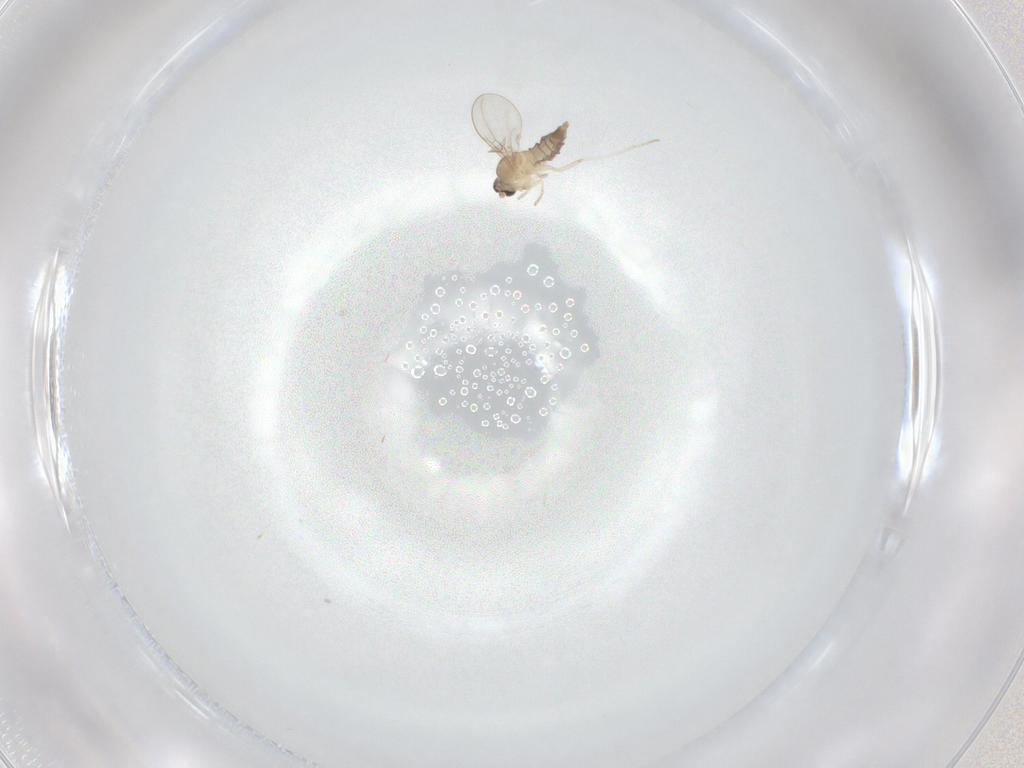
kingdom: Animalia
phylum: Arthropoda
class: Insecta
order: Diptera
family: Cecidomyiidae
